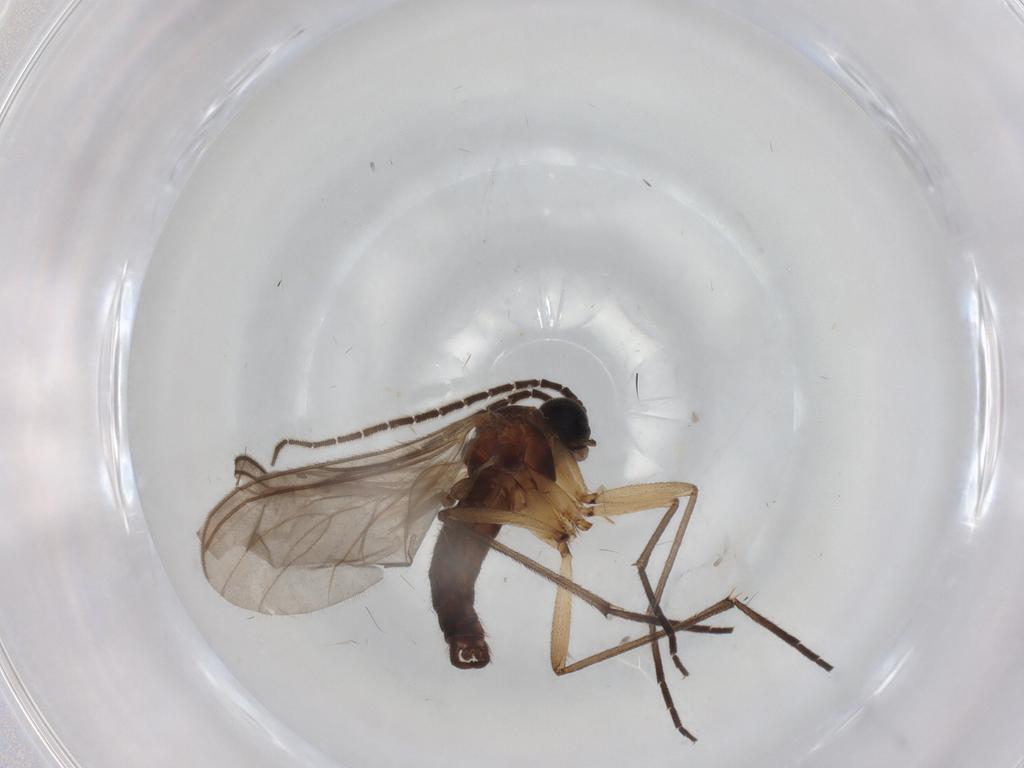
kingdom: Animalia
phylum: Arthropoda
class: Insecta
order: Diptera
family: Sciaridae
